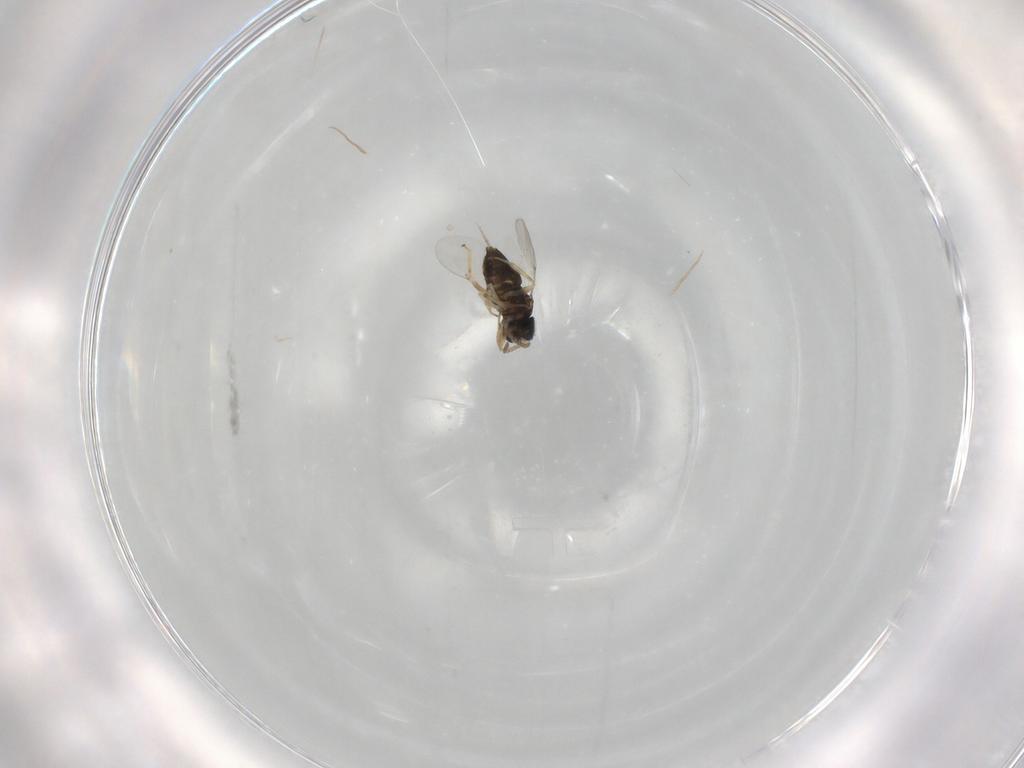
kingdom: Animalia
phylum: Arthropoda
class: Insecta
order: Hymenoptera
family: Encyrtidae
